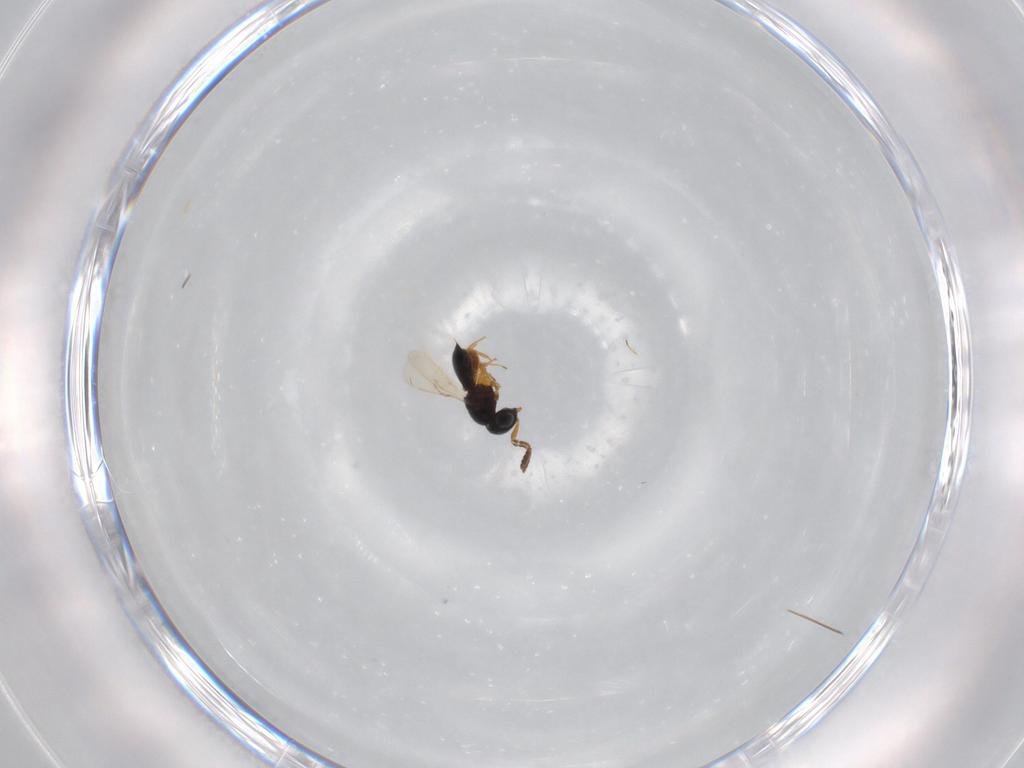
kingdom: Animalia
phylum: Arthropoda
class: Insecta
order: Hymenoptera
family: Scelionidae
